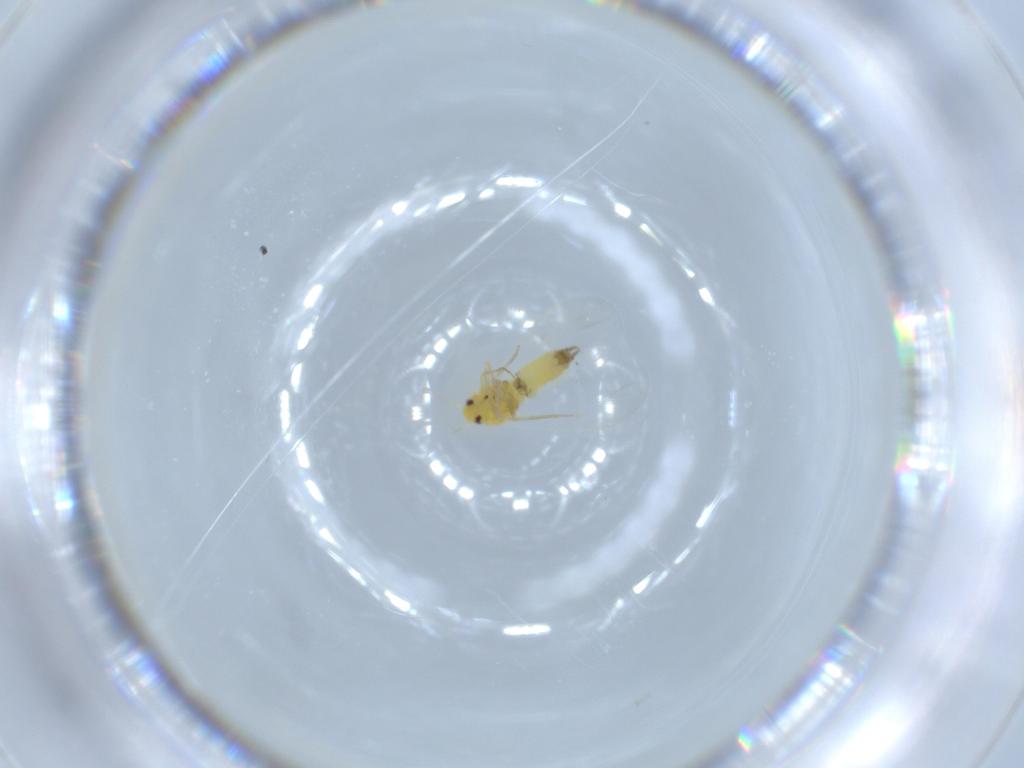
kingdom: Animalia
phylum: Arthropoda
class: Insecta
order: Hemiptera
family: Aleyrodidae
